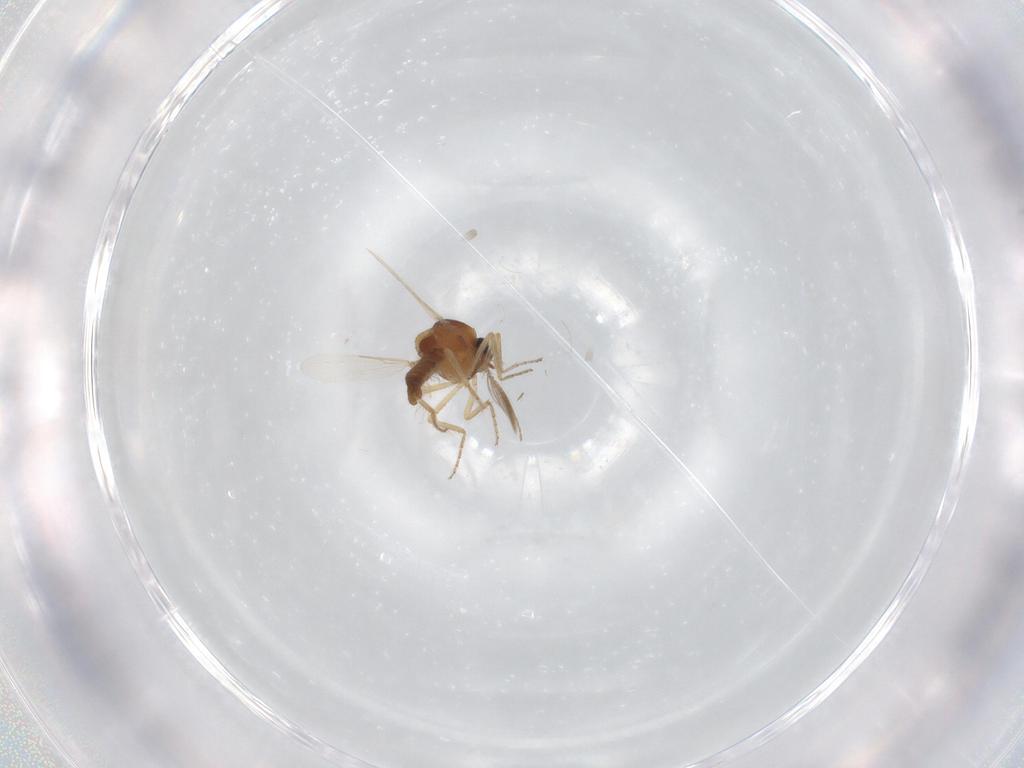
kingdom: Animalia
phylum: Arthropoda
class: Insecta
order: Diptera
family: Ceratopogonidae
